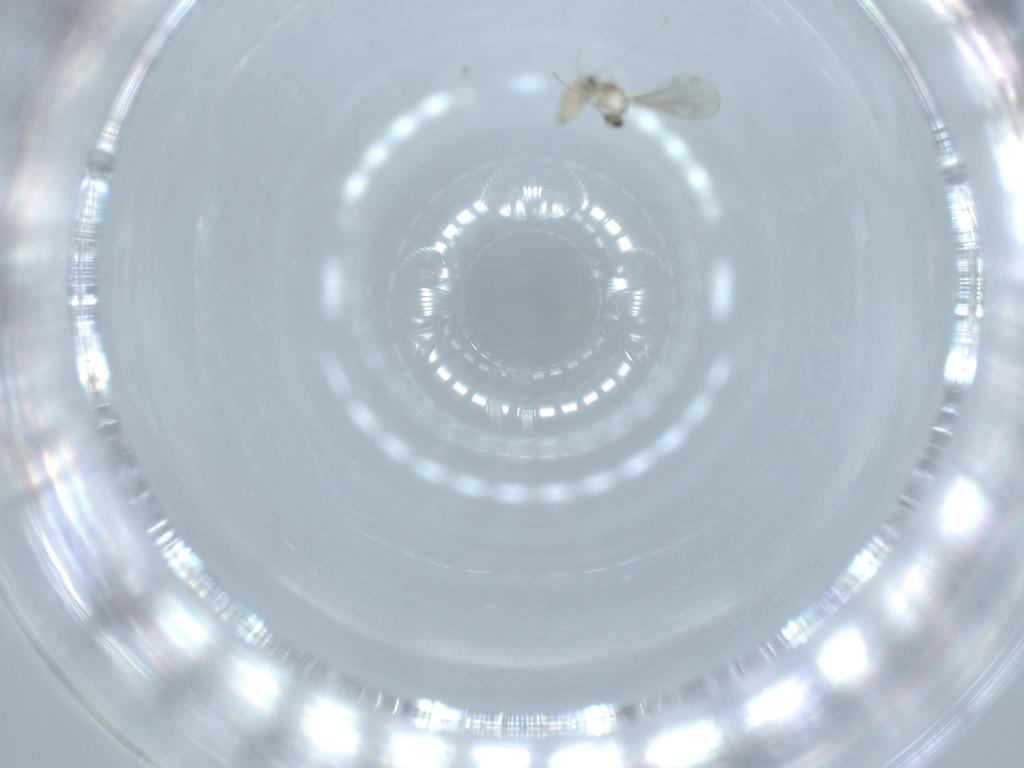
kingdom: Animalia
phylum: Arthropoda
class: Insecta
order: Diptera
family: Cecidomyiidae
